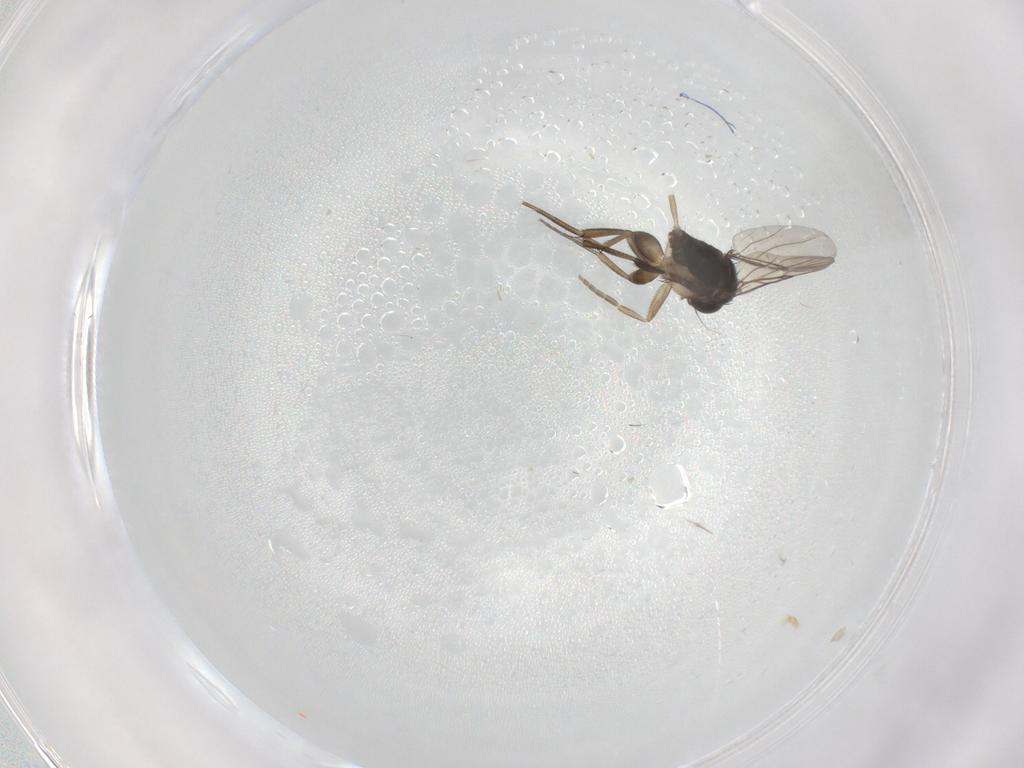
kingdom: Animalia
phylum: Arthropoda
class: Insecta
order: Diptera
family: Phoridae
